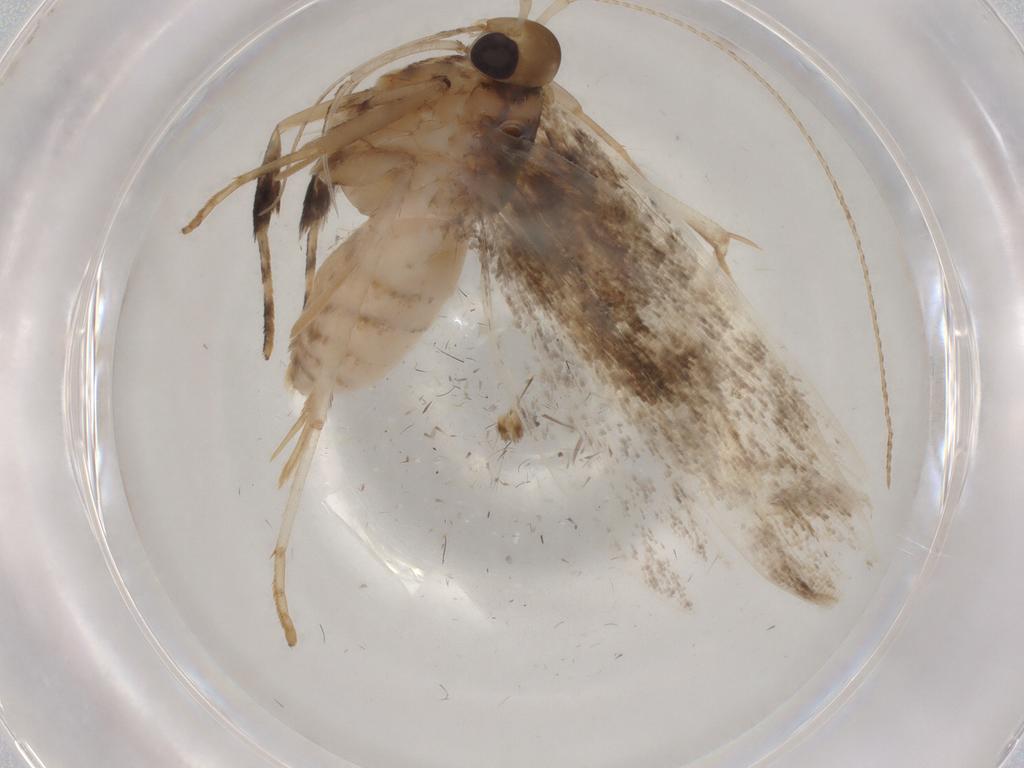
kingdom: Animalia
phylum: Arthropoda
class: Insecta
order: Lepidoptera
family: Gelechiidae
